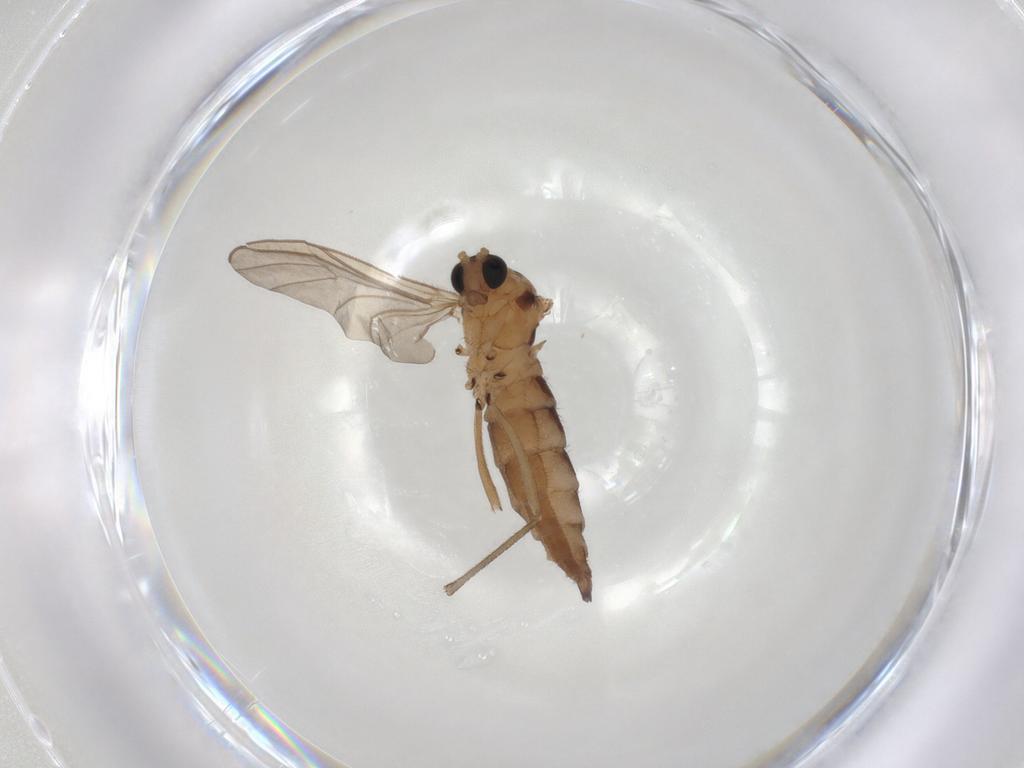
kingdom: Animalia
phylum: Arthropoda
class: Insecta
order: Diptera
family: Sciaridae
